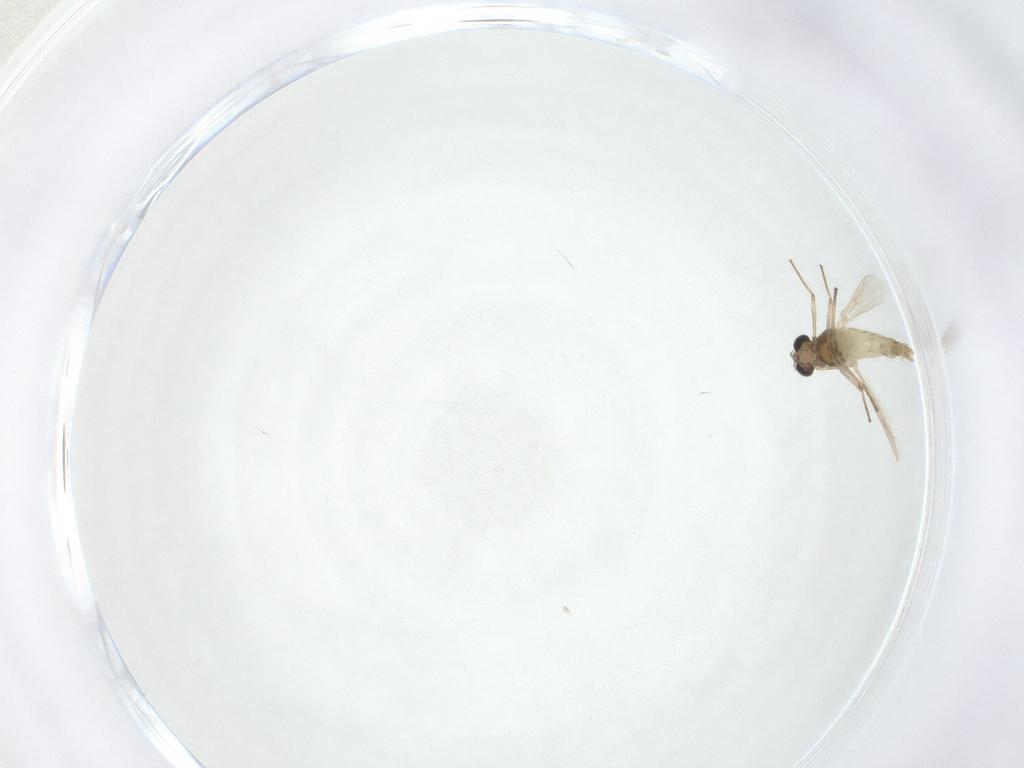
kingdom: Animalia
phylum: Arthropoda
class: Insecta
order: Diptera
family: Chironomidae
